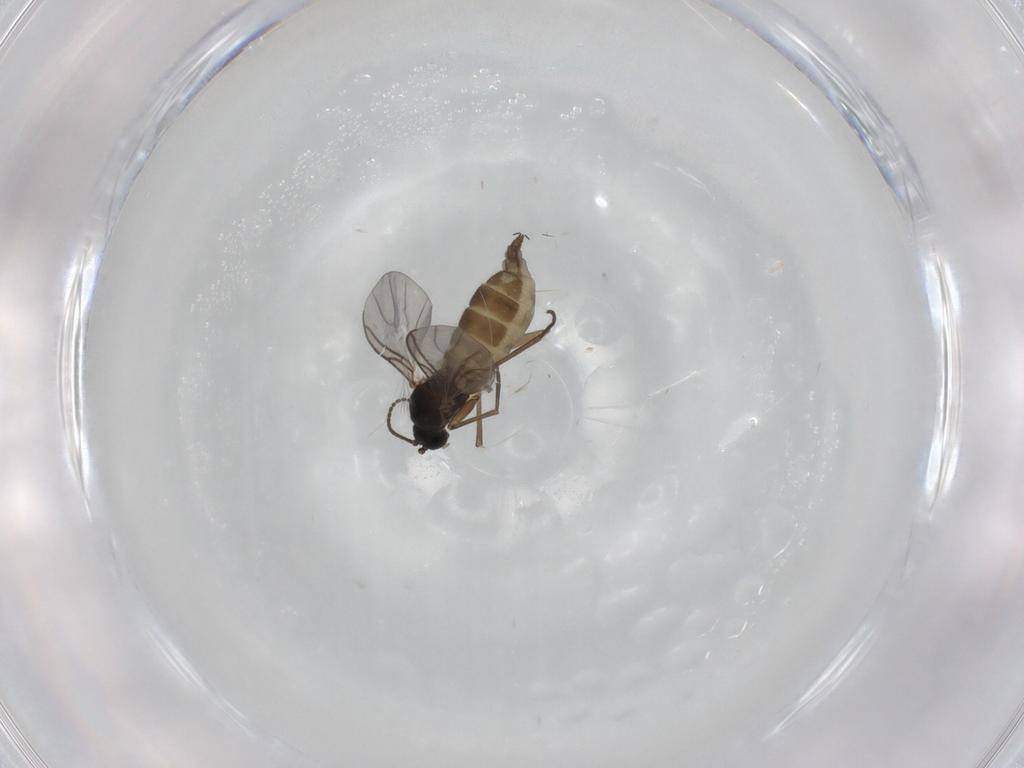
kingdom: Animalia
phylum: Arthropoda
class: Insecta
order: Diptera
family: Sciaridae
